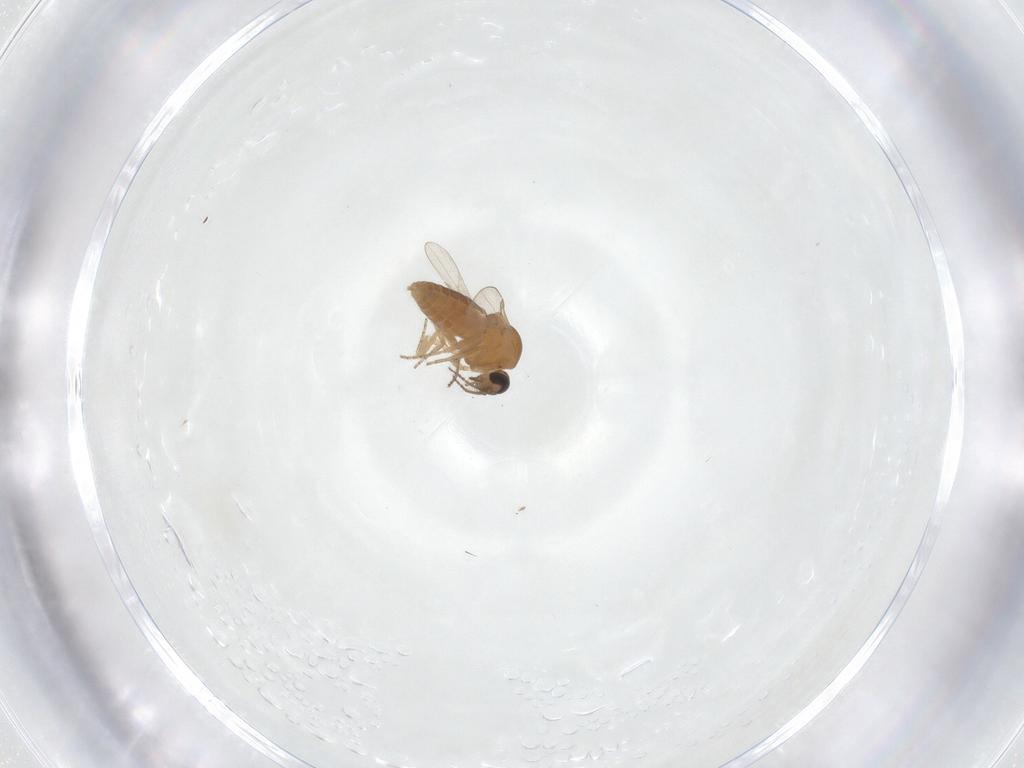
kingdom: Animalia
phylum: Arthropoda
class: Insecta
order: Diptera
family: Ceratopogonidae
